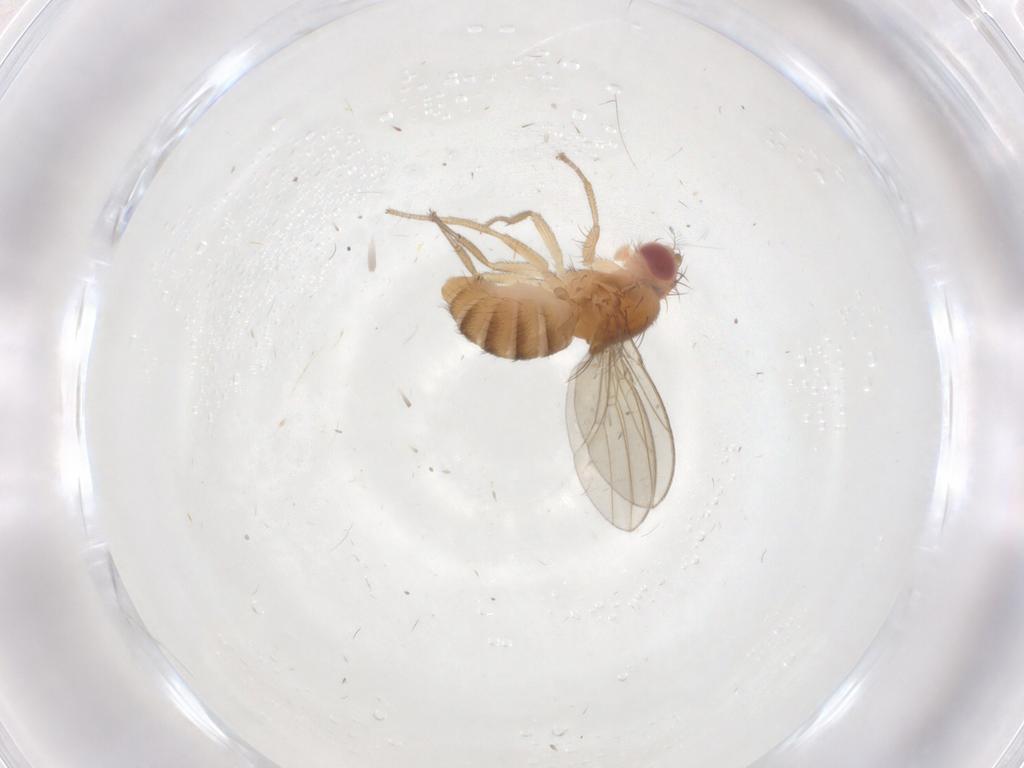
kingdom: Animalia
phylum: Arthropoda
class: Insecta
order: Diptera
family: Drosophilidae
